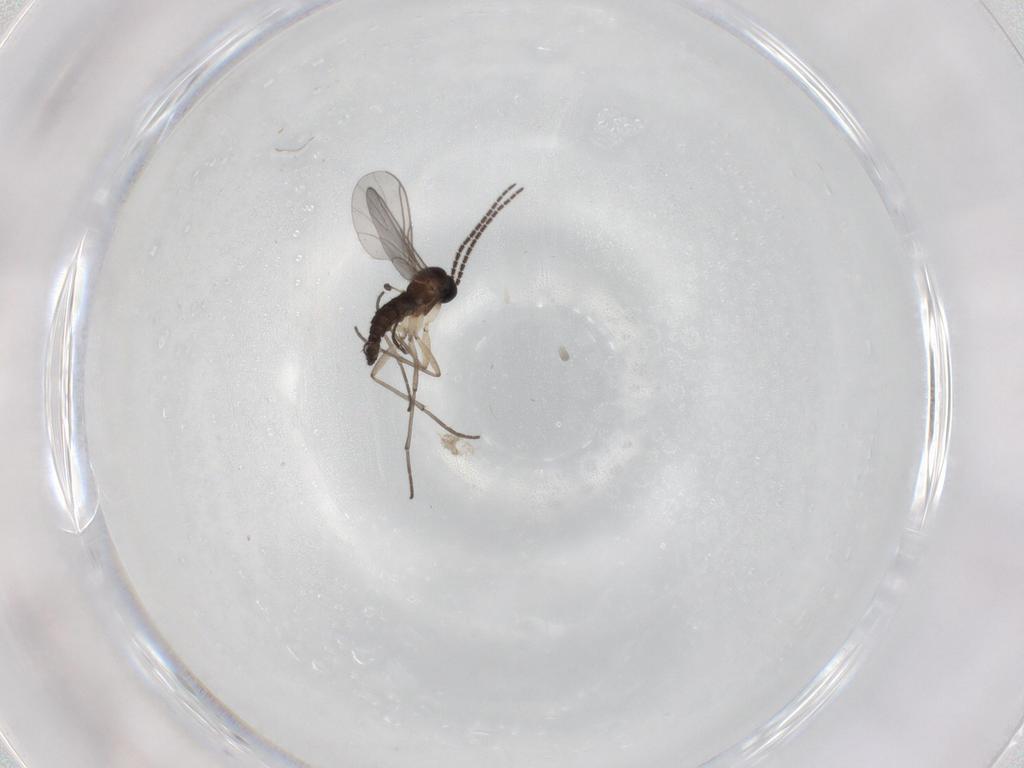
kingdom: Animalia
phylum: Arthropoda
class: Insecta
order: Diptera
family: Sciaridae
